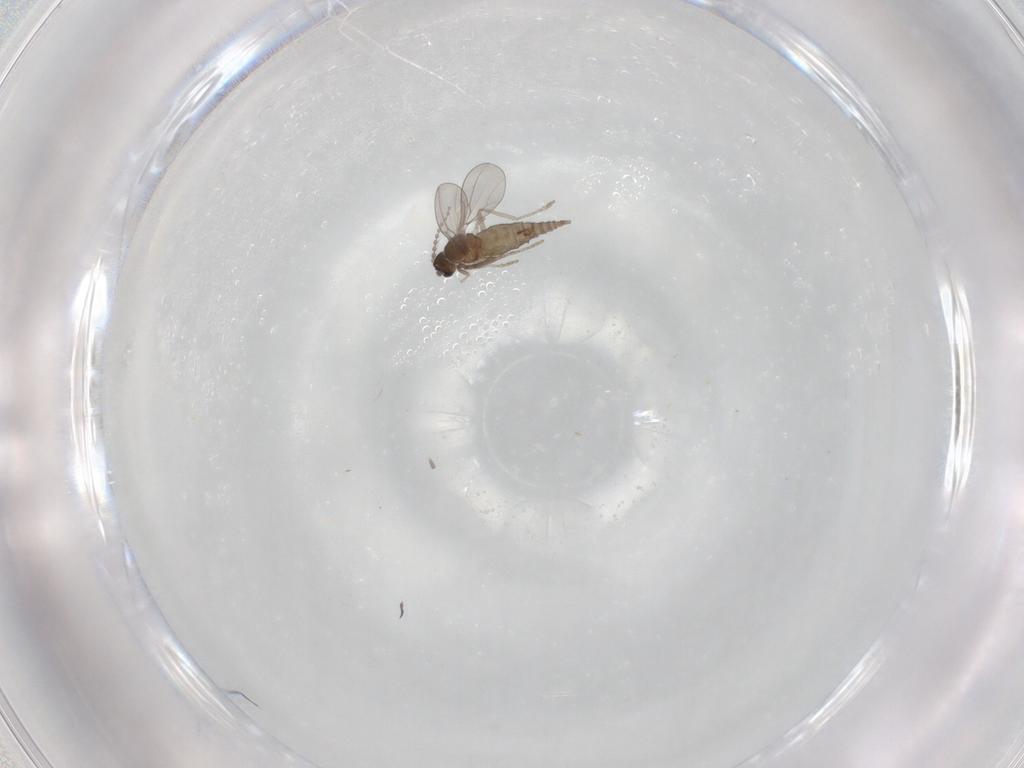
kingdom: Animalia
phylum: Arthropoda
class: Insecta
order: Diptera
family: Cecidomyiidae
